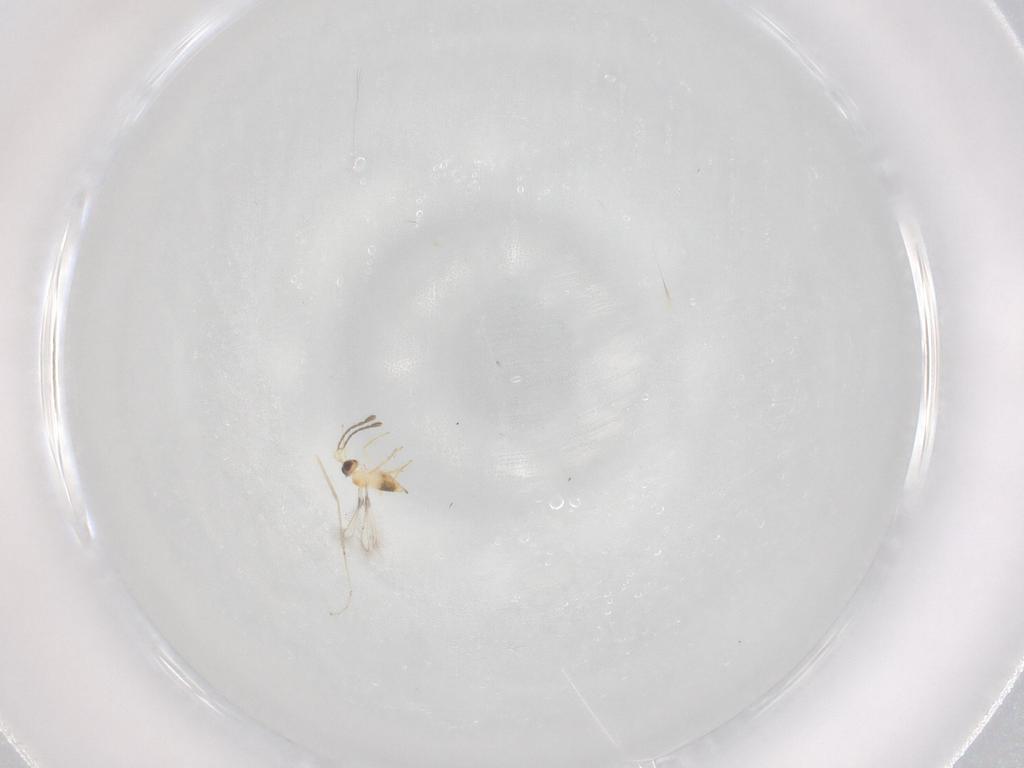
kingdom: Animalia
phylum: Arthropoda
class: Insecta
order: Hymenoptera
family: Mymaridae
